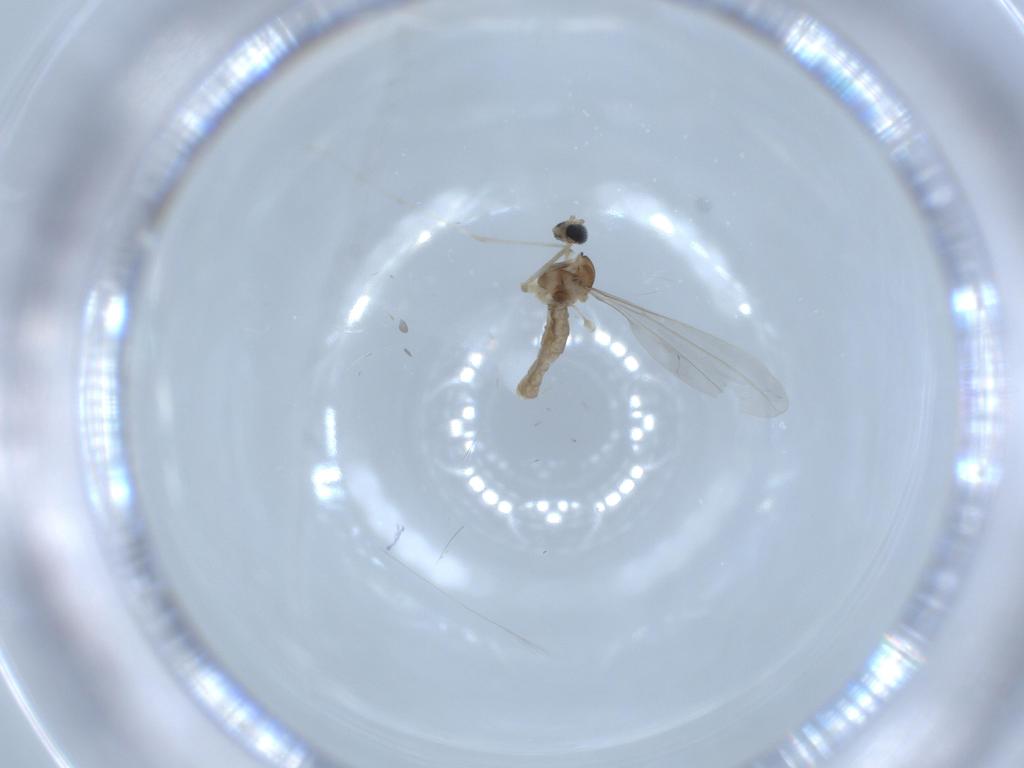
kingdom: Animalia
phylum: Arthropoda
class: Insecta
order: Diptera
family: Cecidomyiidae
